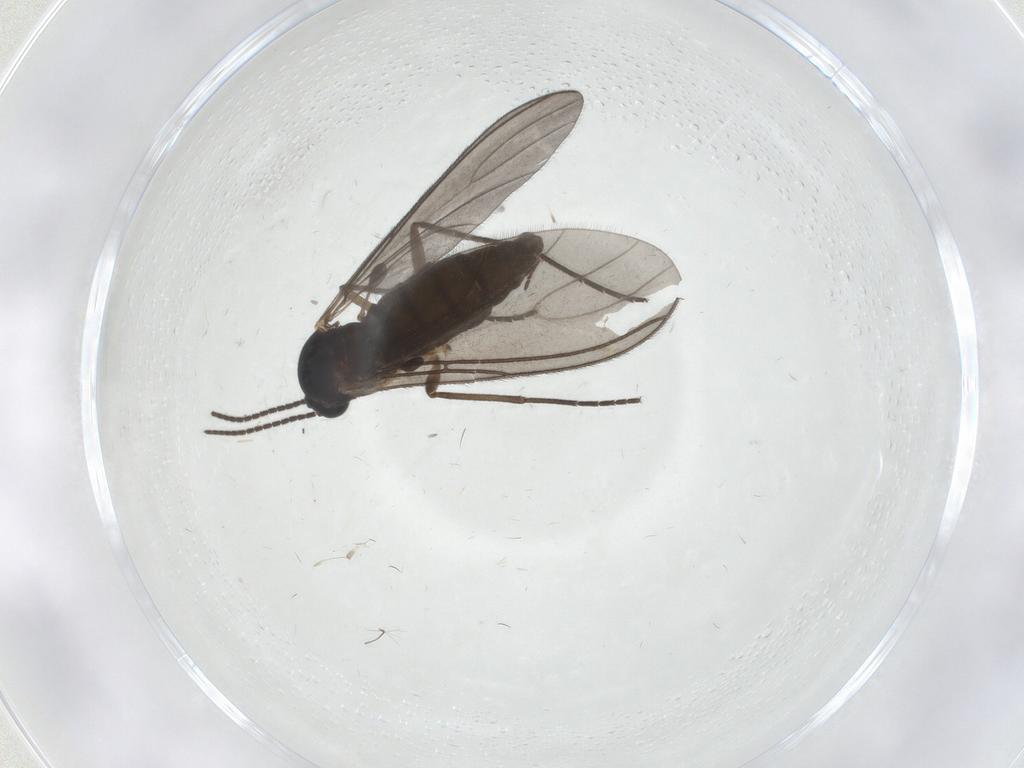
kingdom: Animalia
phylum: Arthropoda
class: Insecta
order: Diptera
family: Sciaridae
